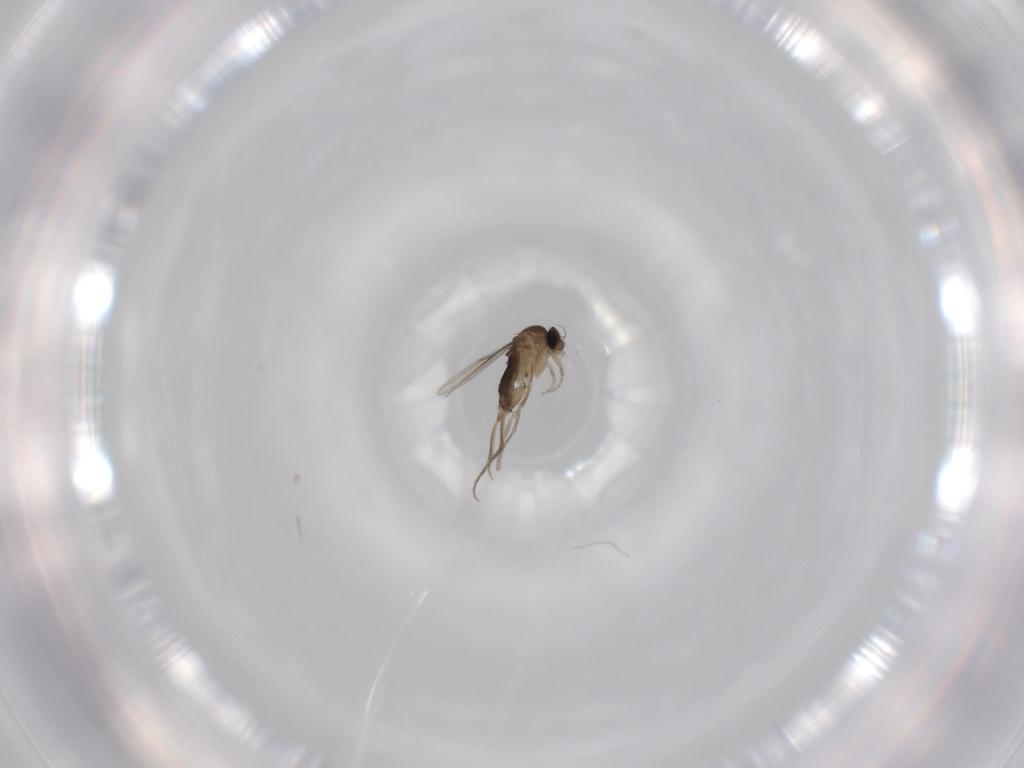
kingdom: Animalia
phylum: Arthropoda
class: Insecta
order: Diptera
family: Phoridae
